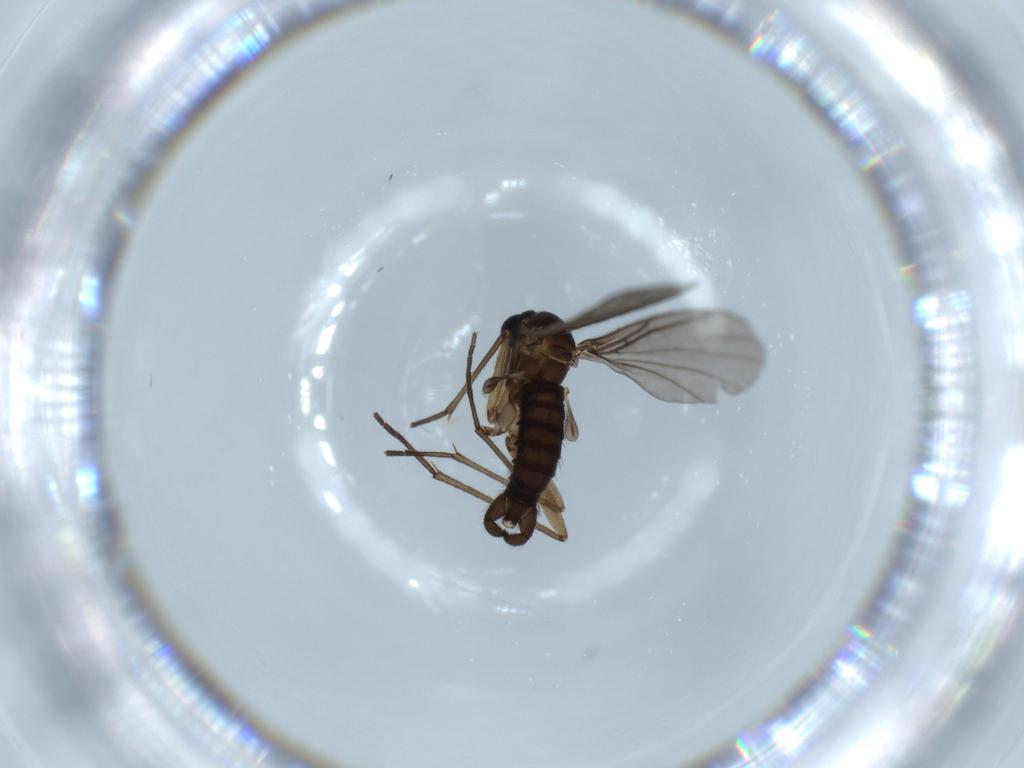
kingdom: Animalia
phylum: Arthropoda
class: Insecta
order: Diptera
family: Sciaridae
